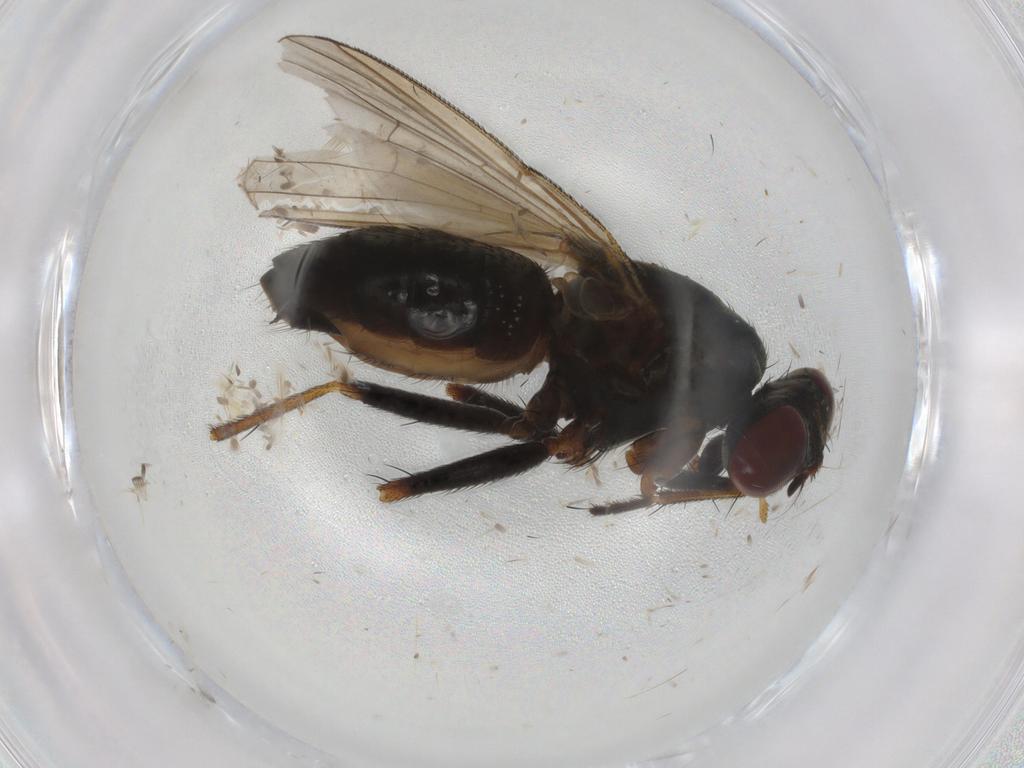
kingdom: Animalia
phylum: Arthropoda
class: Insecta
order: Diptera
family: Muscidae
